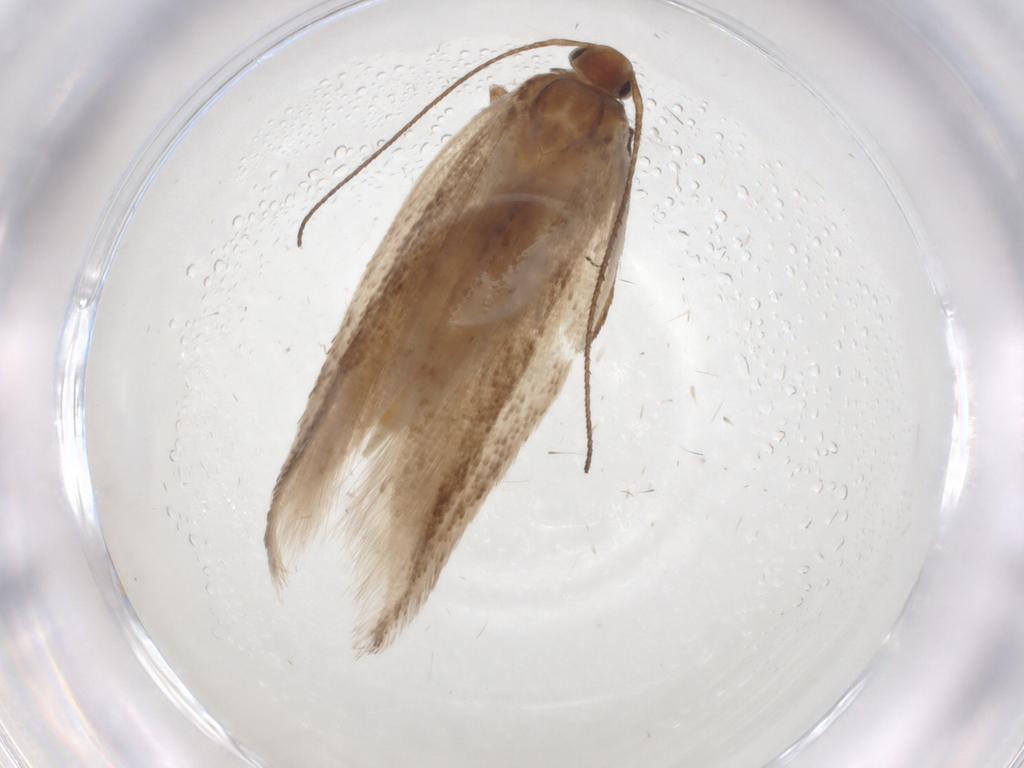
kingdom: Animalia
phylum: Arthropoda
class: Insecta
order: Lepidoptera
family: Gelechiidae
